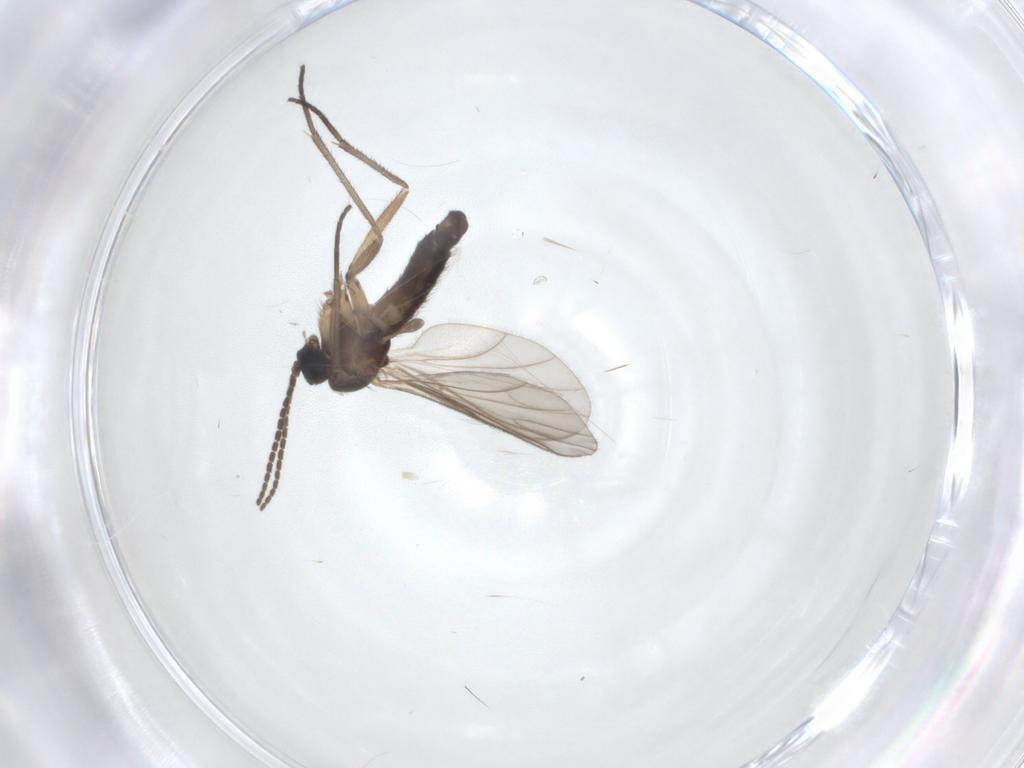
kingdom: Animalia
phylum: Arthropoda
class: Insecta
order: Diptera
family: Sciaridae
